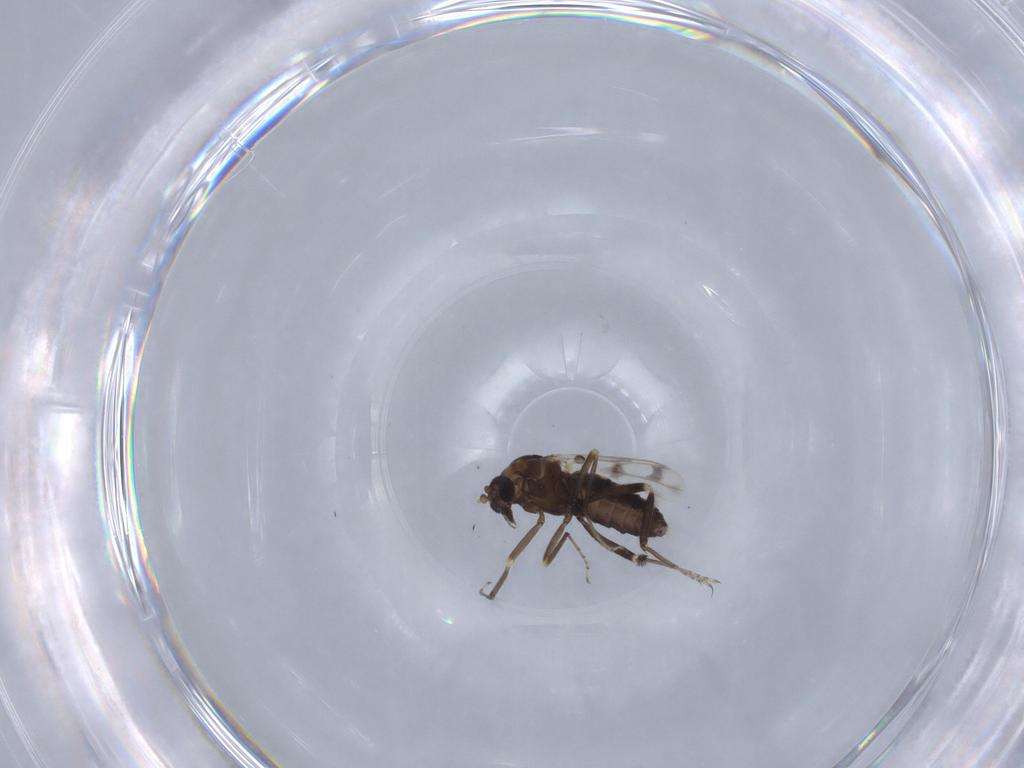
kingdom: Animalia
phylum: Arthropoda
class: Insecta
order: Diptera
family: Ceratopogonidae
